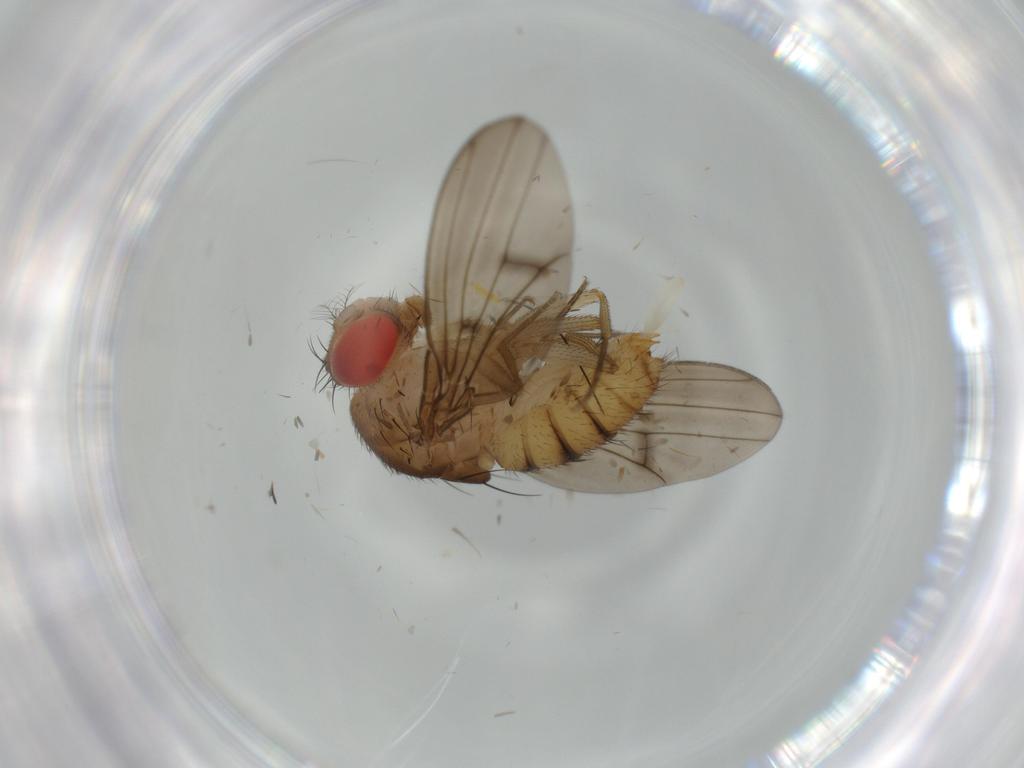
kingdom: Animalia
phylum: Arthropoda
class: Insecta
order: Diptera
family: Drosophilidae
